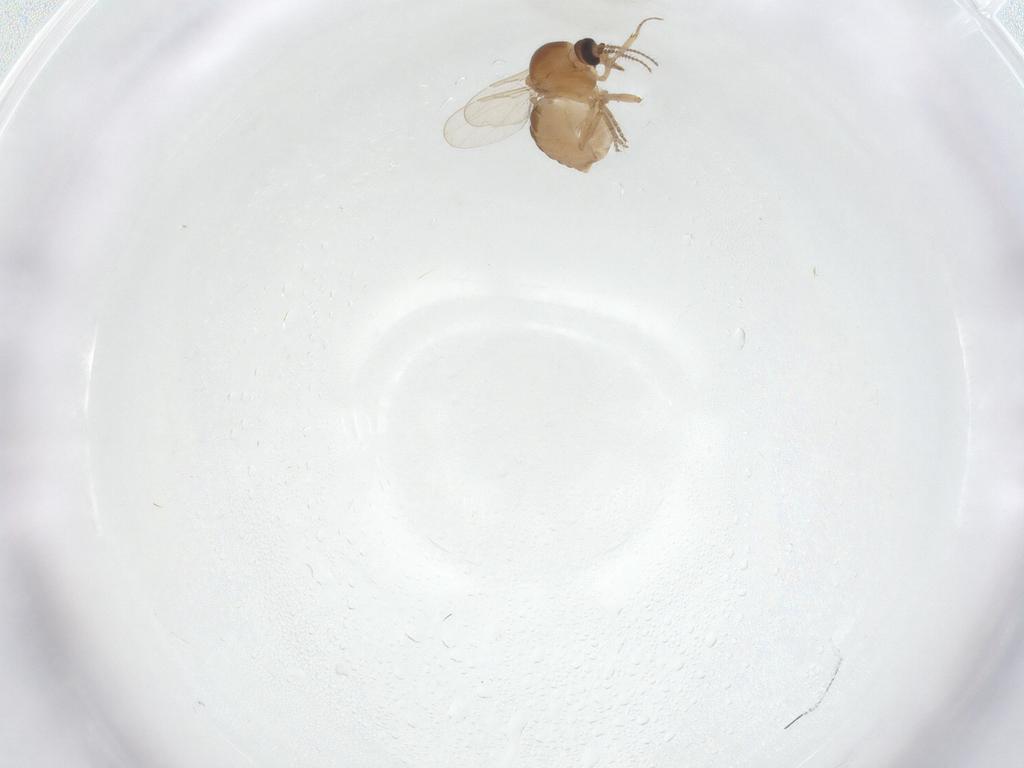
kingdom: Animalia
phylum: Arthropoda
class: Insecta
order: Diptera
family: Ceratopogonidae
